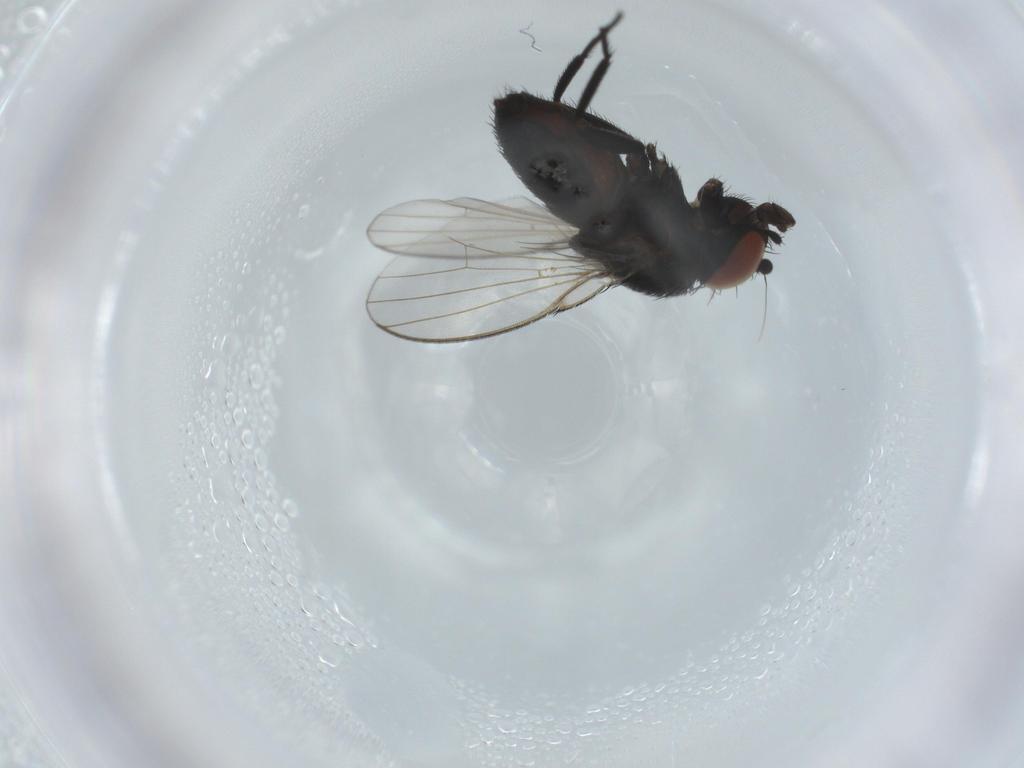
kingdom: Animalia
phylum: Arthropoda
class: Insecta
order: Diptera
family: Milichiidae
